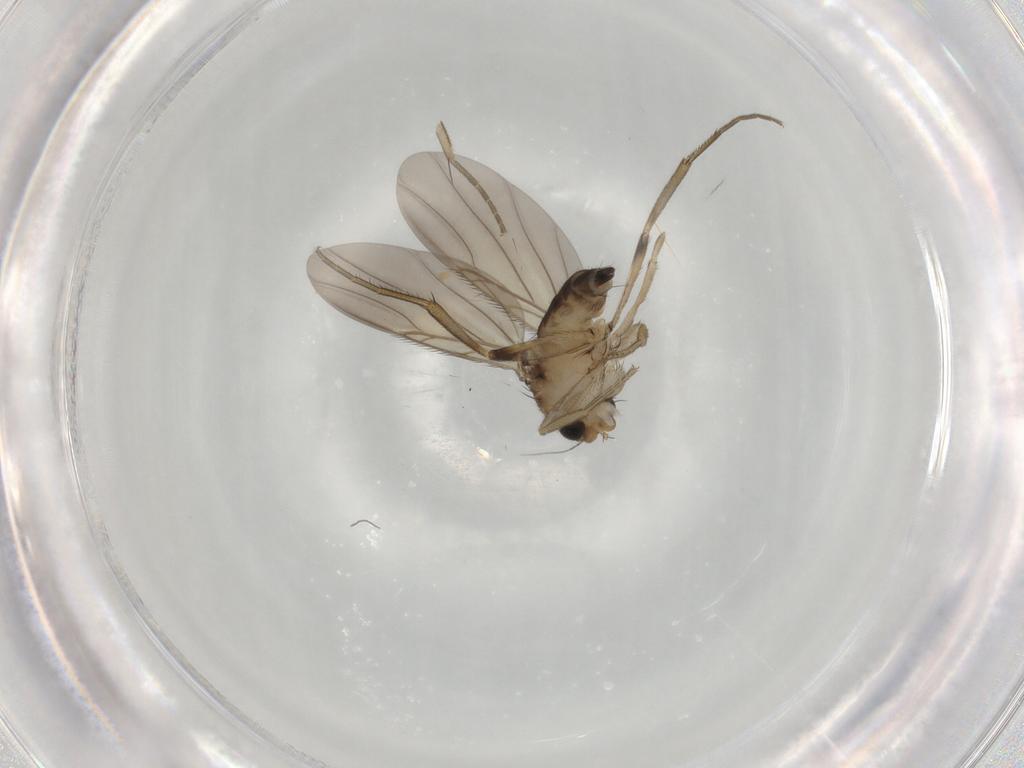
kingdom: Animalia
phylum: Arthropoda
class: Insecta
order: Diptera
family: Phoridae
